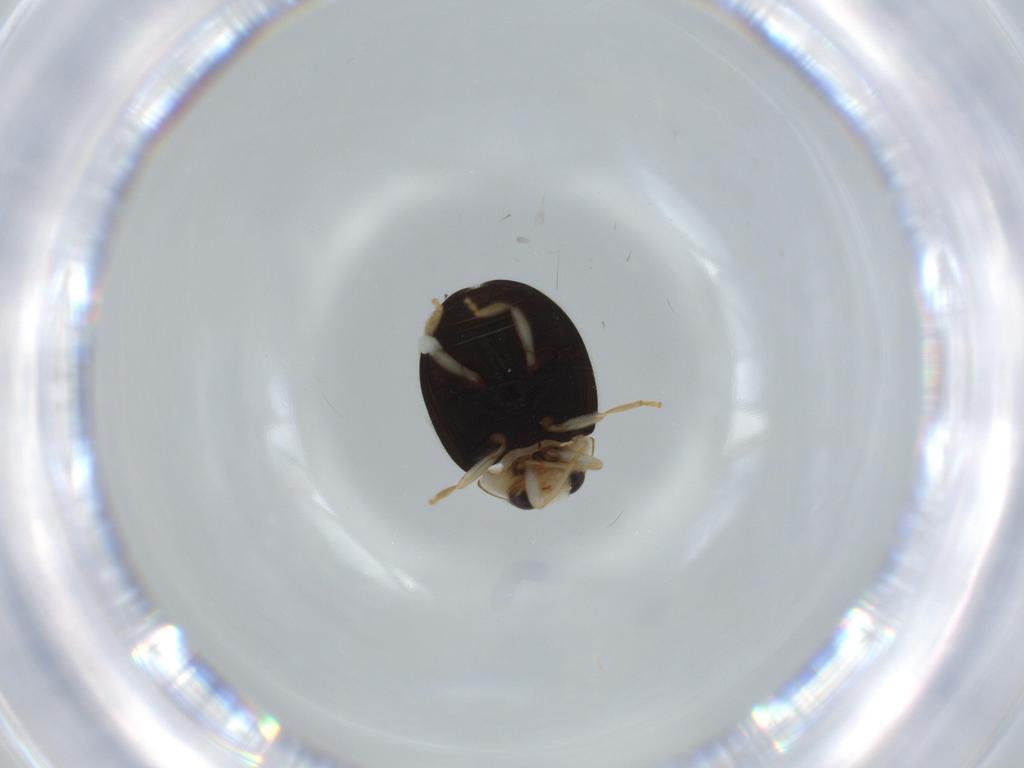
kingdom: Animalia
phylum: Arthropoda
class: Insecta
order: Coleoptera
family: Coccinellidae
